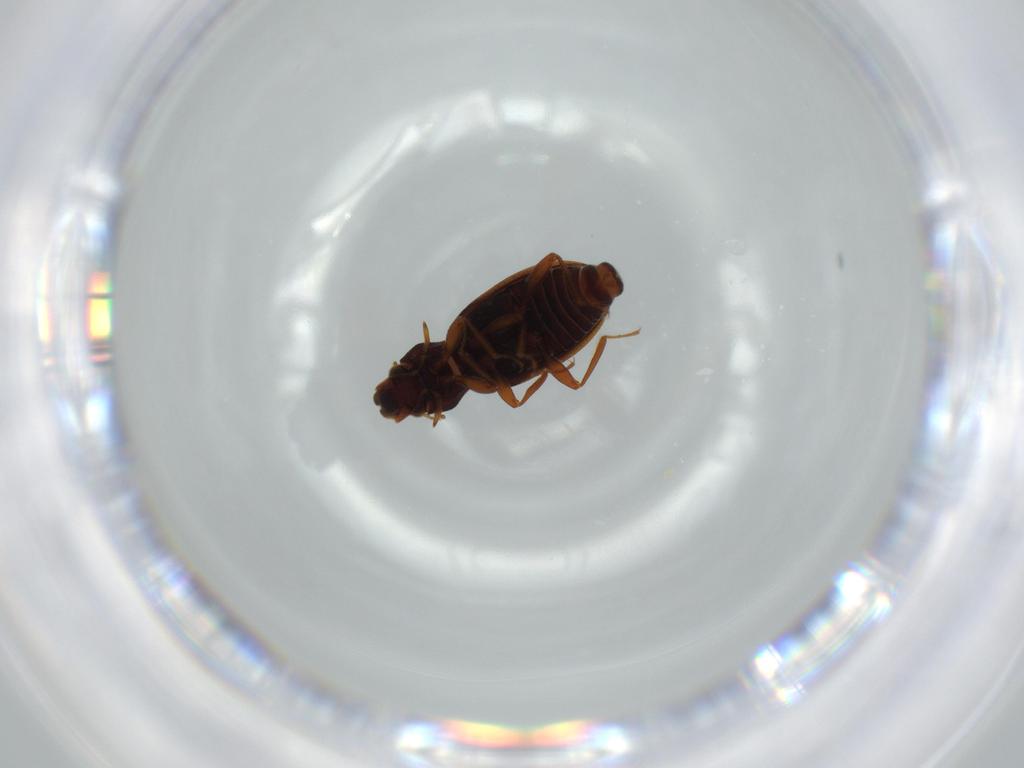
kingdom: Animalia
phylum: Arthropoda
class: Insecta
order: Coleoptera
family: Hydraenidae
